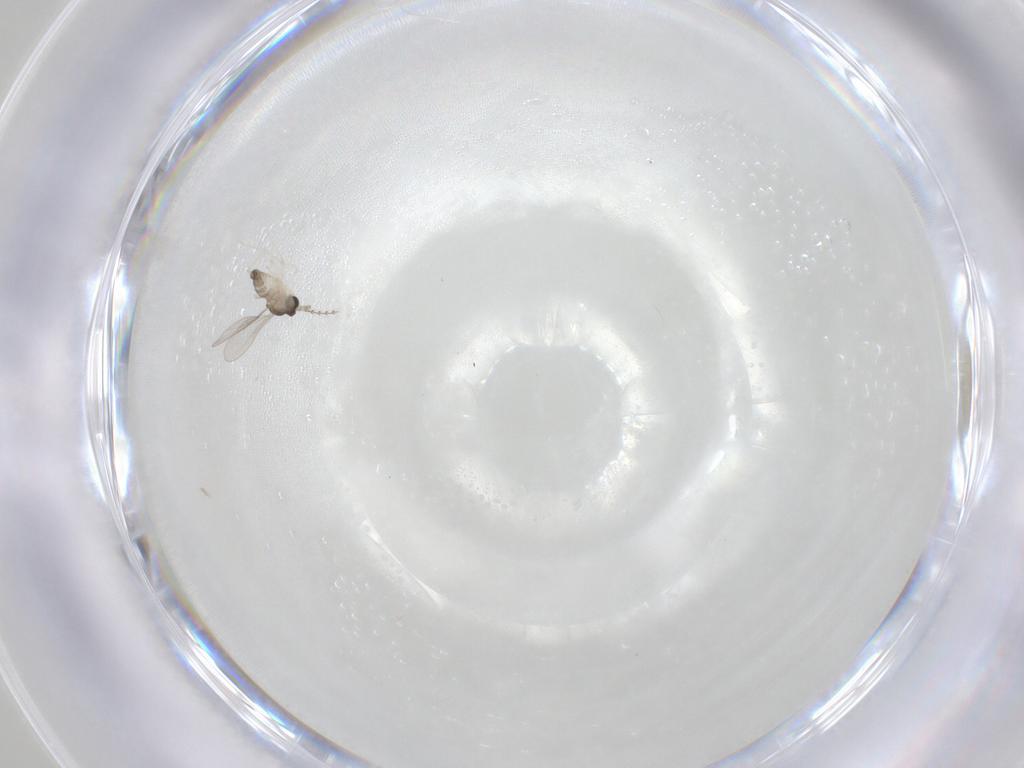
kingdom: Animalia
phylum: Arthropoda
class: Insecta
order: Diptera
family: Cecidomyiidae
